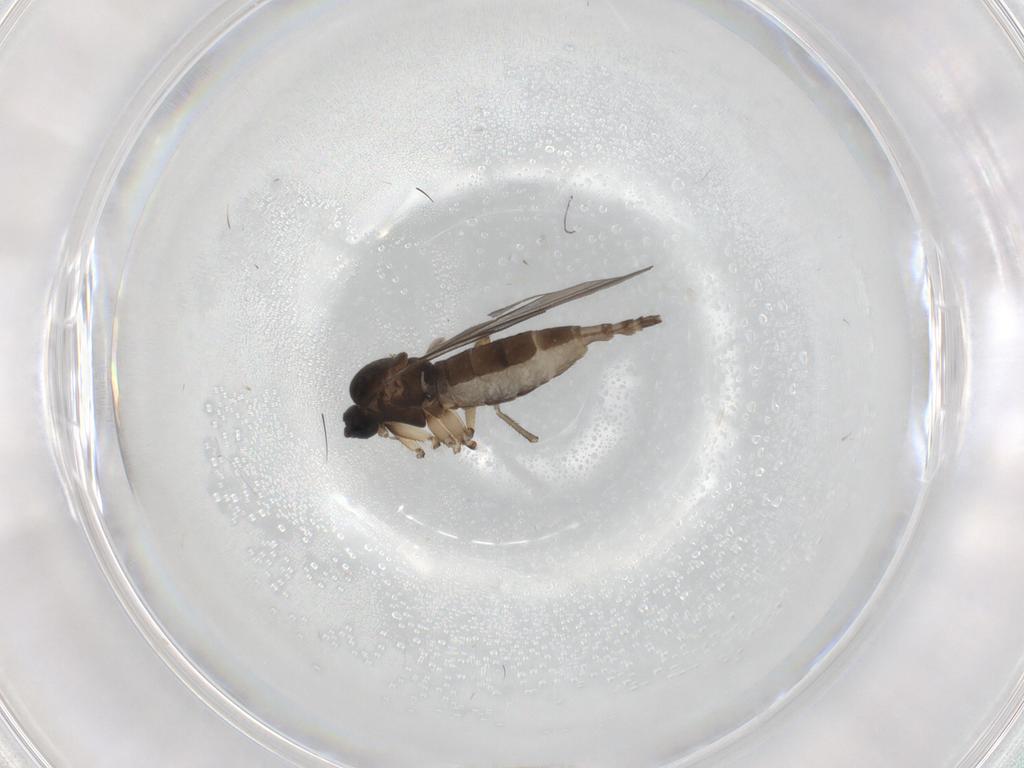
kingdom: Animalia
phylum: Arthropoda
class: Insecta
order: Diptera
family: Sciaridae
